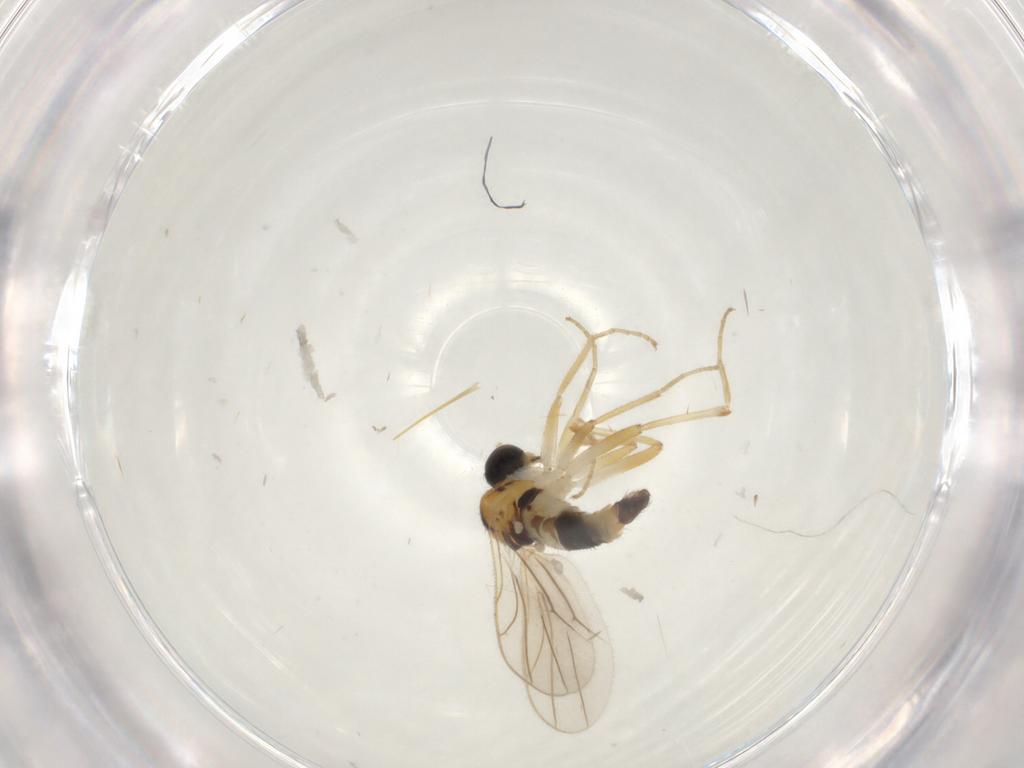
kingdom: Animalia
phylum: Arthropoda
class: Insecta
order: Diptera
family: Hybotidae
